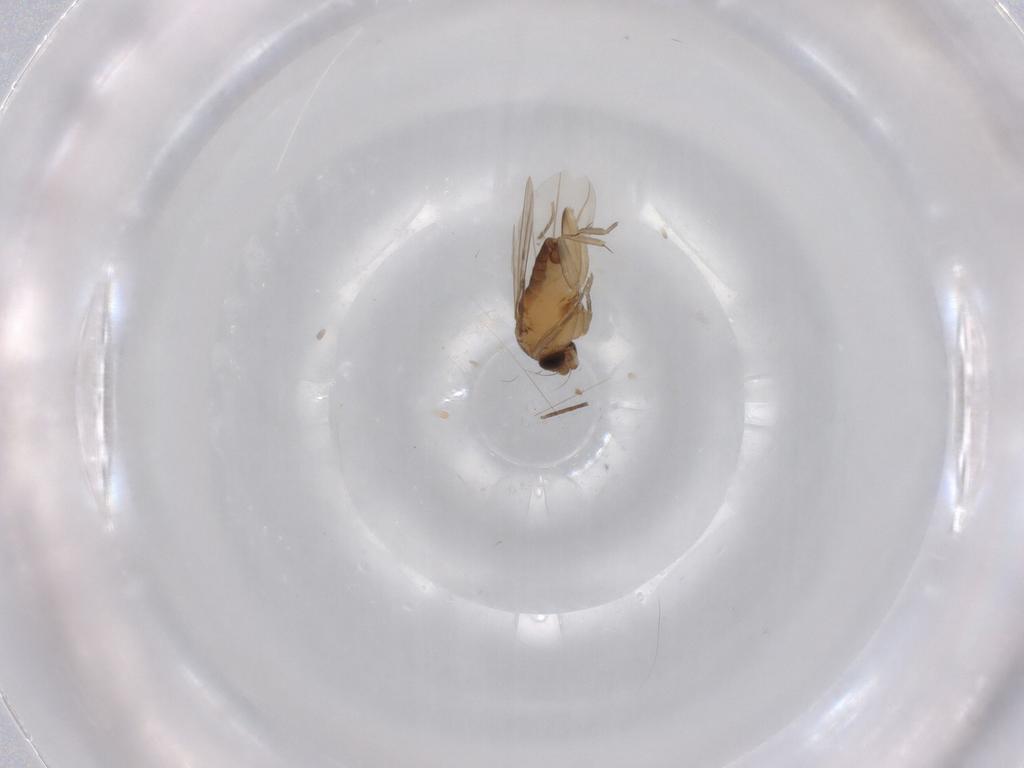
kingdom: Animalia
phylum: Arthropoda
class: Insecta
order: Diptera
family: Phoridae
